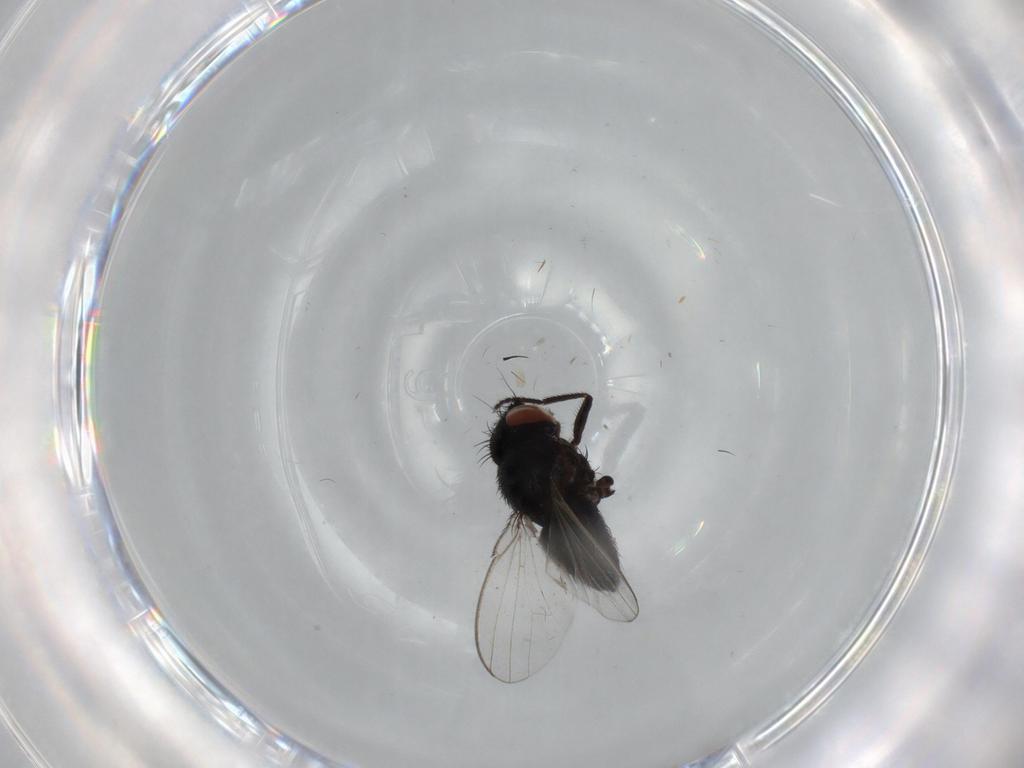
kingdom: Animalia
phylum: Arthropoda
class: Insecta
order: Diptera
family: Milichiidae
